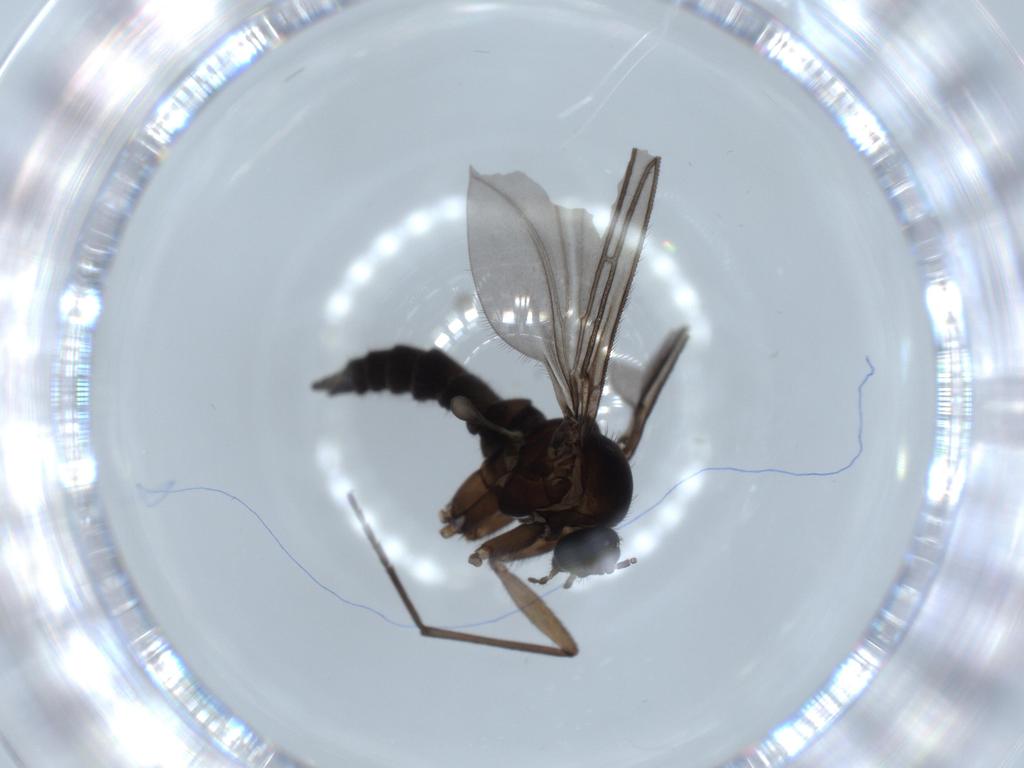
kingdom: Animalia
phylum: Arthropoda
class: Insecta
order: Diptera
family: Sciaridae
